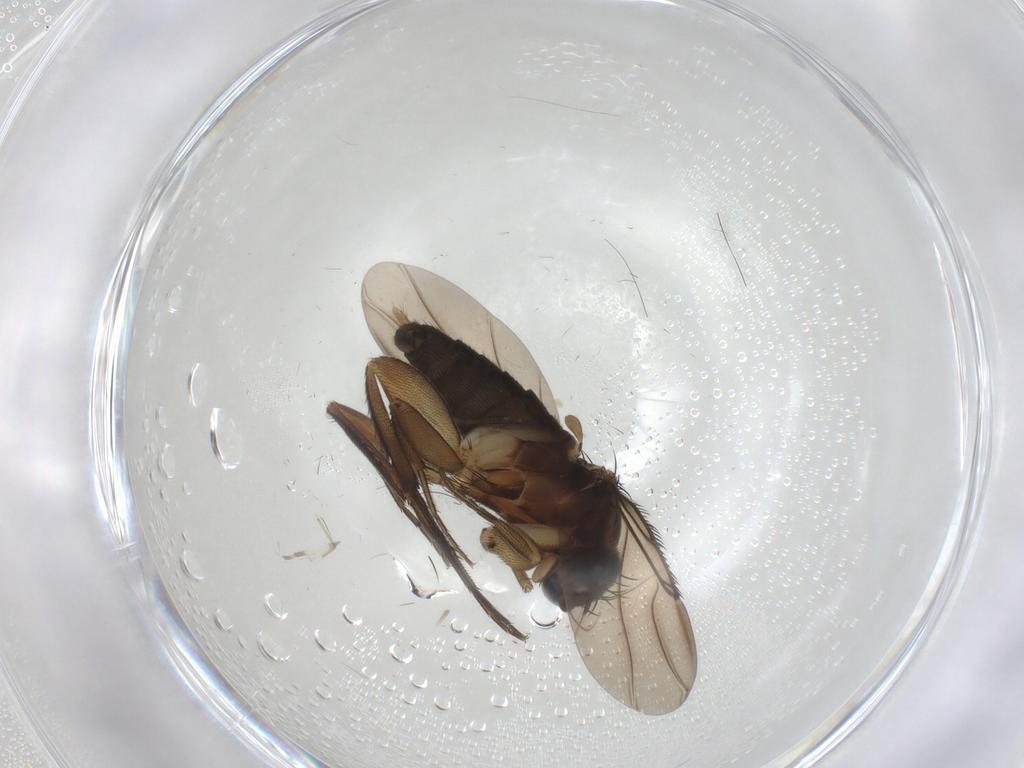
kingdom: Animalia
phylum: Arthropoda
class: Insecta
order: Diptera
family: Phoridae
